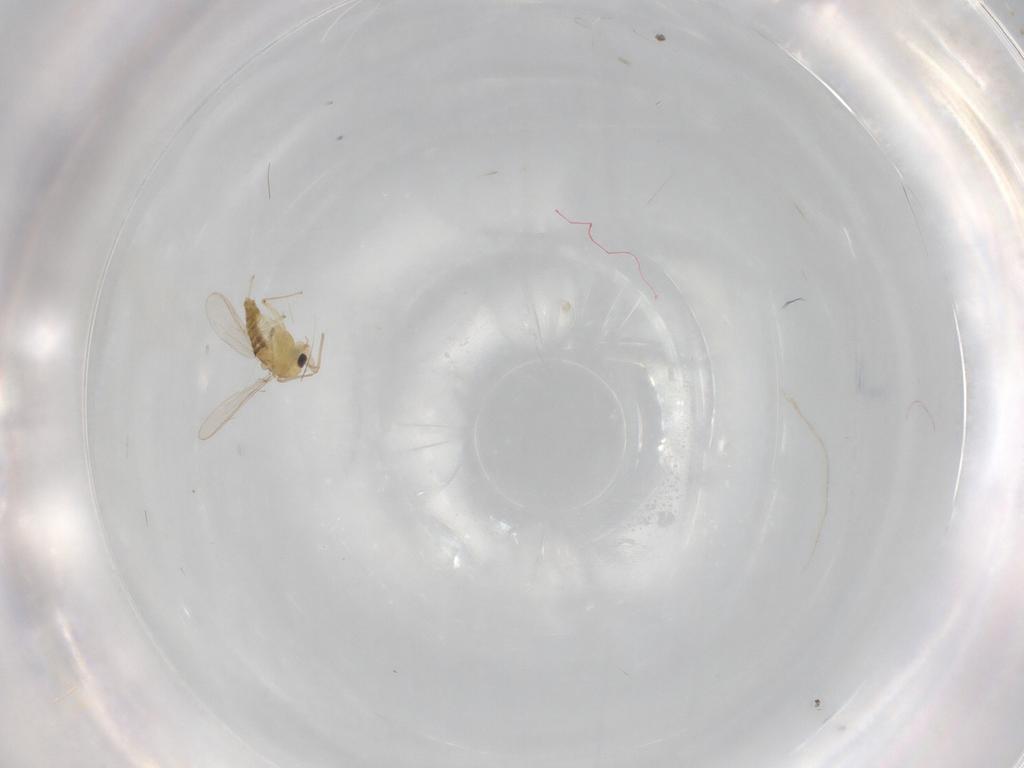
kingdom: Animalia
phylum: Arthropoda
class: Insecta
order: Diptera
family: Chironomidae
